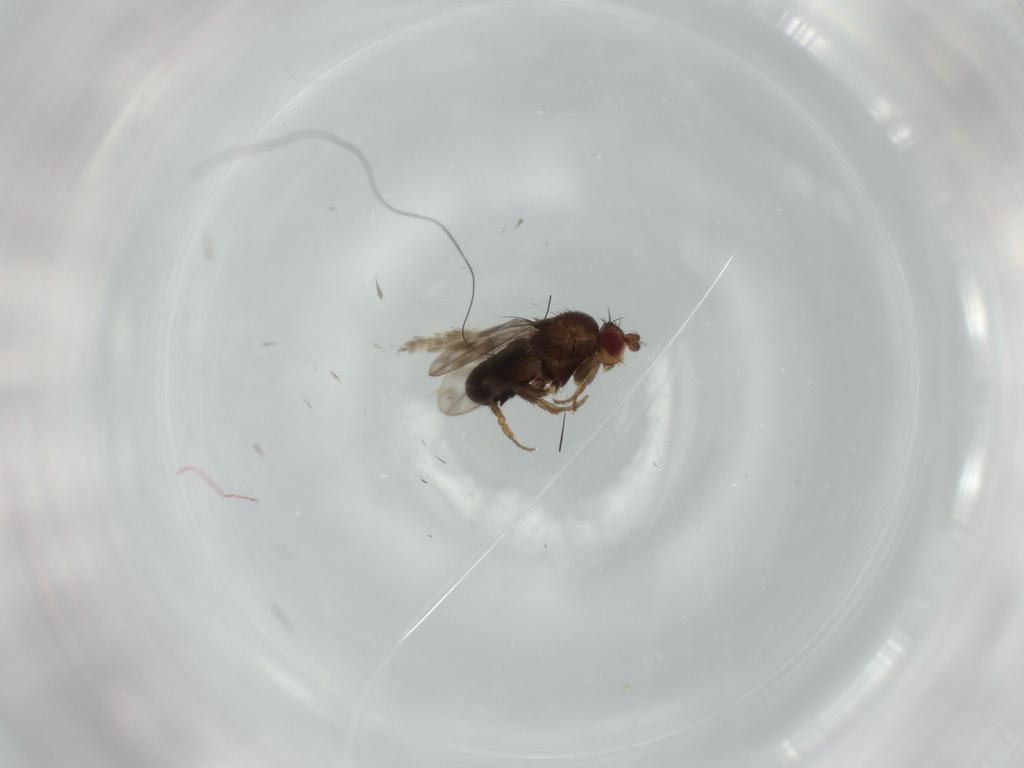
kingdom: Animalia
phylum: Arthropoda
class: Insecta
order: Diptera
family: Sphaeroceridae
